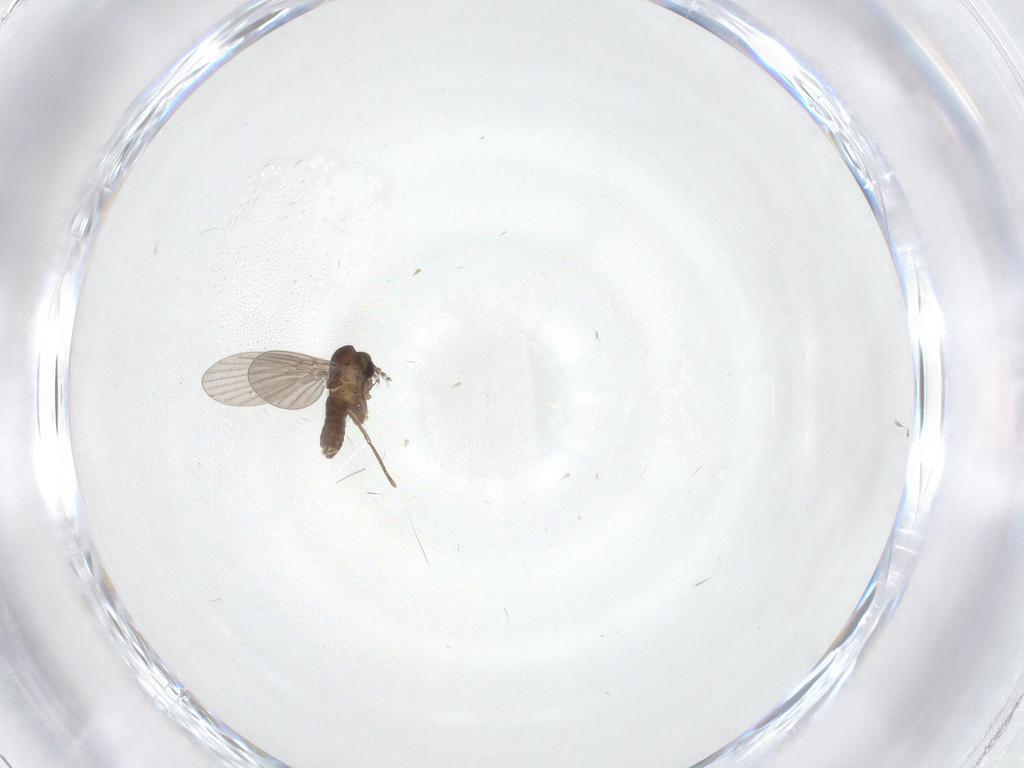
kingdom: Animalia
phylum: Arthropoda
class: Insecta
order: Diptera
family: Psychodidae
